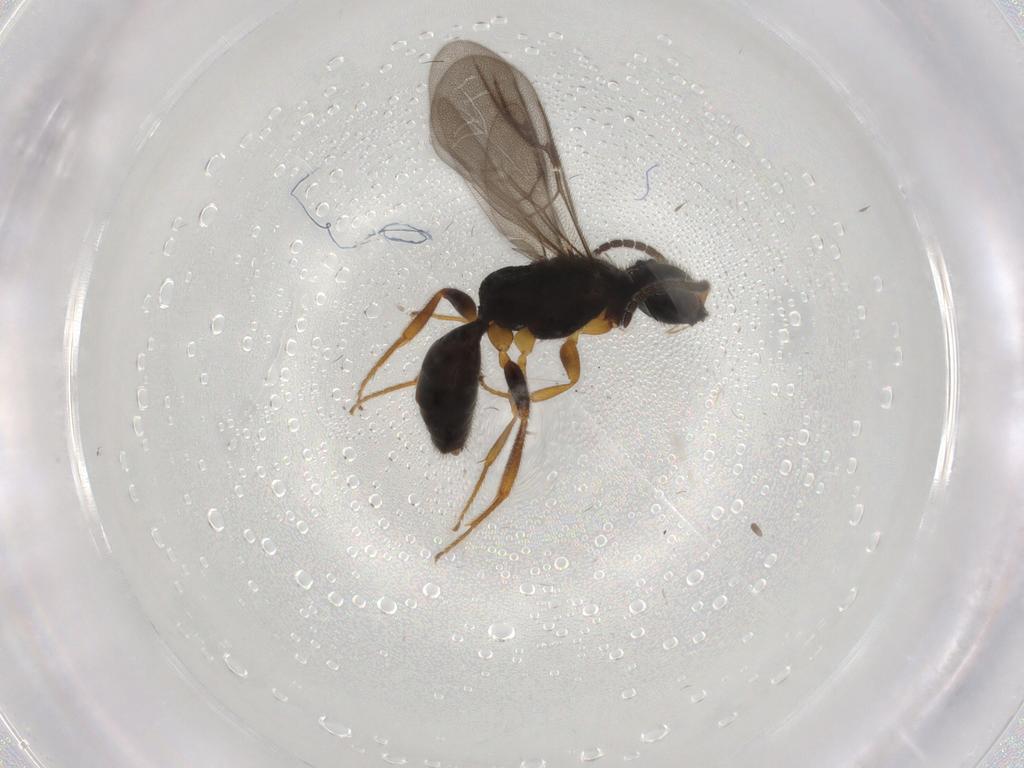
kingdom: Animalia
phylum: Arthropoda
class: Insecta
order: Hymenoptera
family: Bethylidae
